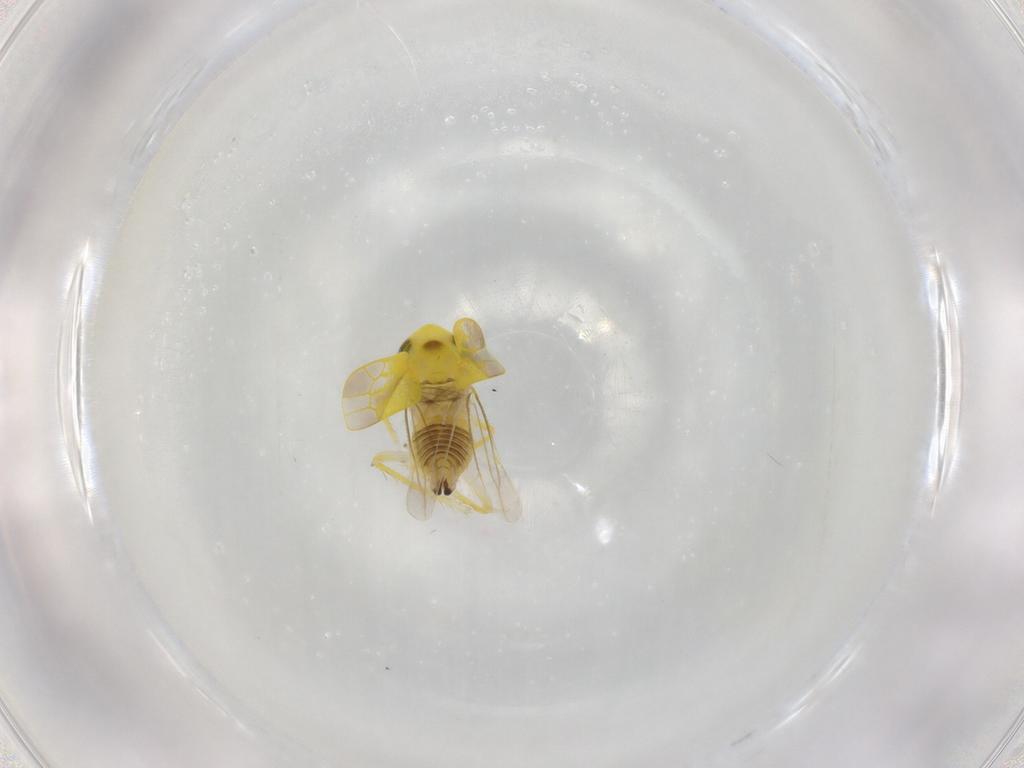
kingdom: Animalia
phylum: Arthropoda
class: Insecta
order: Hemiptera
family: Cicadellidae
